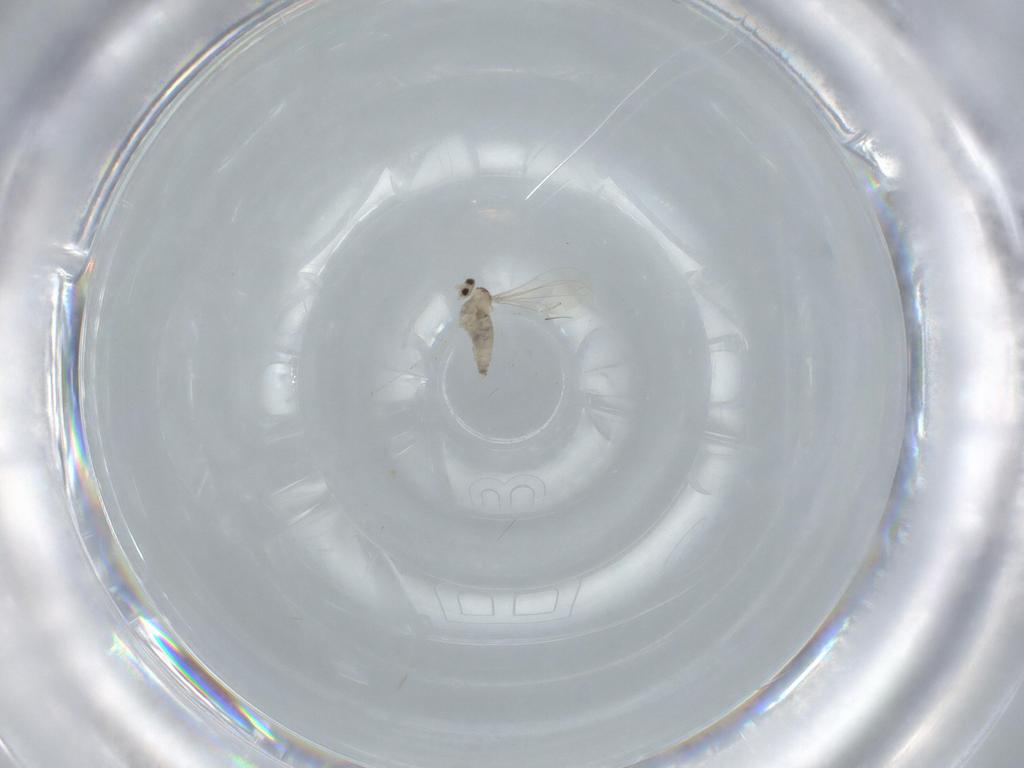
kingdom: Animalia
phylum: Arthropoda
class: Insecta
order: Diptera
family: Cecidomyiidae
